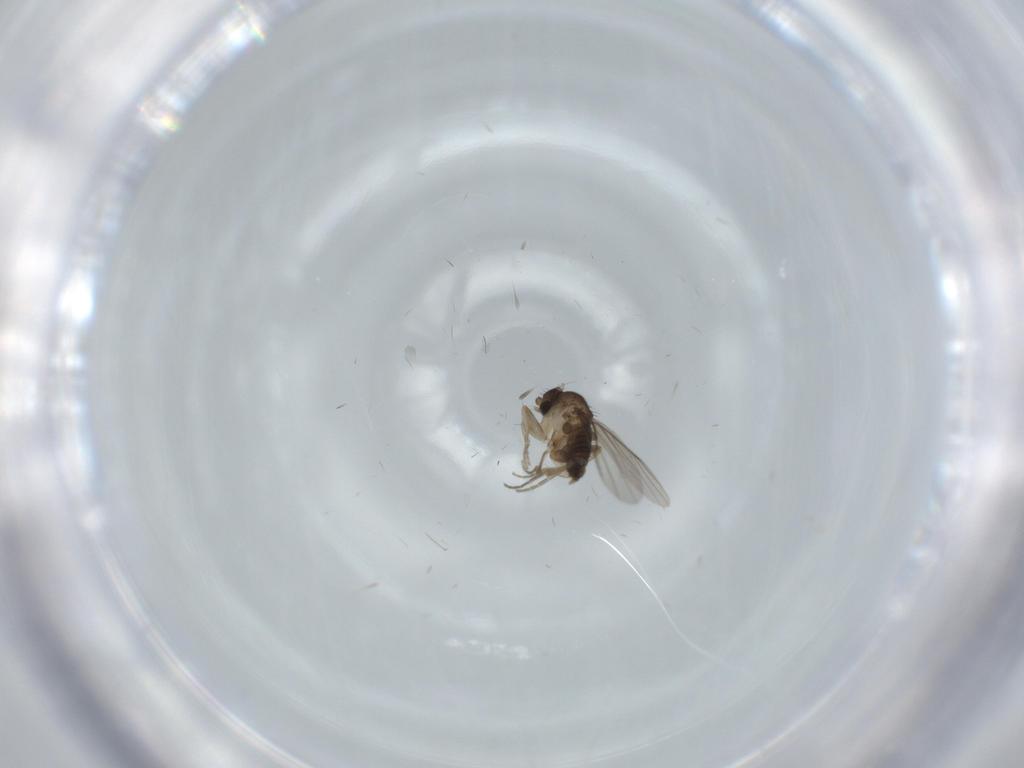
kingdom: Animalia
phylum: Arthropoda
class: Insecta
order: Diptera
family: Phoridae
